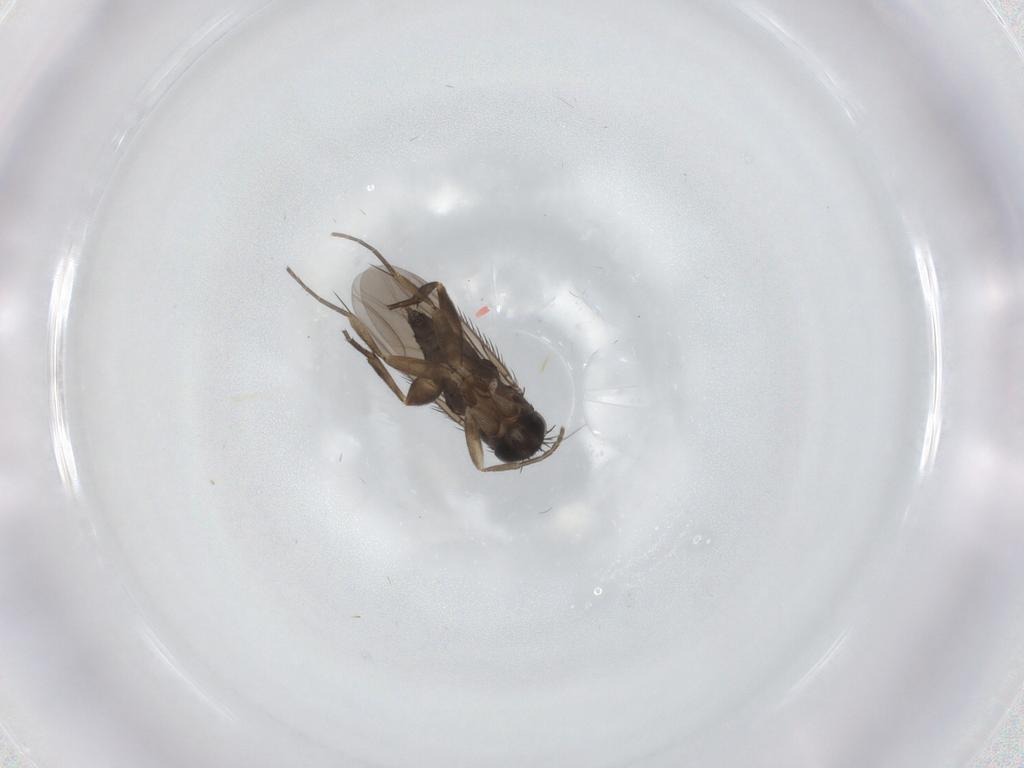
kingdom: Animalia
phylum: Arthropoda
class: Insecta
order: Diptera
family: Phoridae
